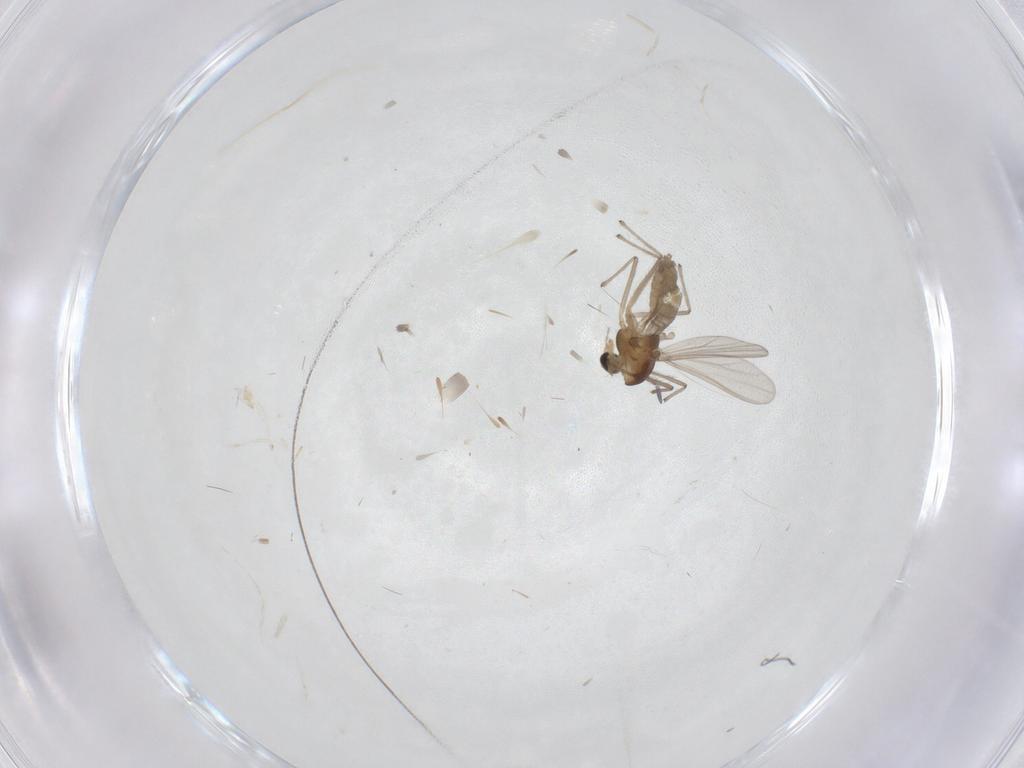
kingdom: Animalia
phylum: Arthropoda
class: Insecta
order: Diptera
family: Chironomidae
